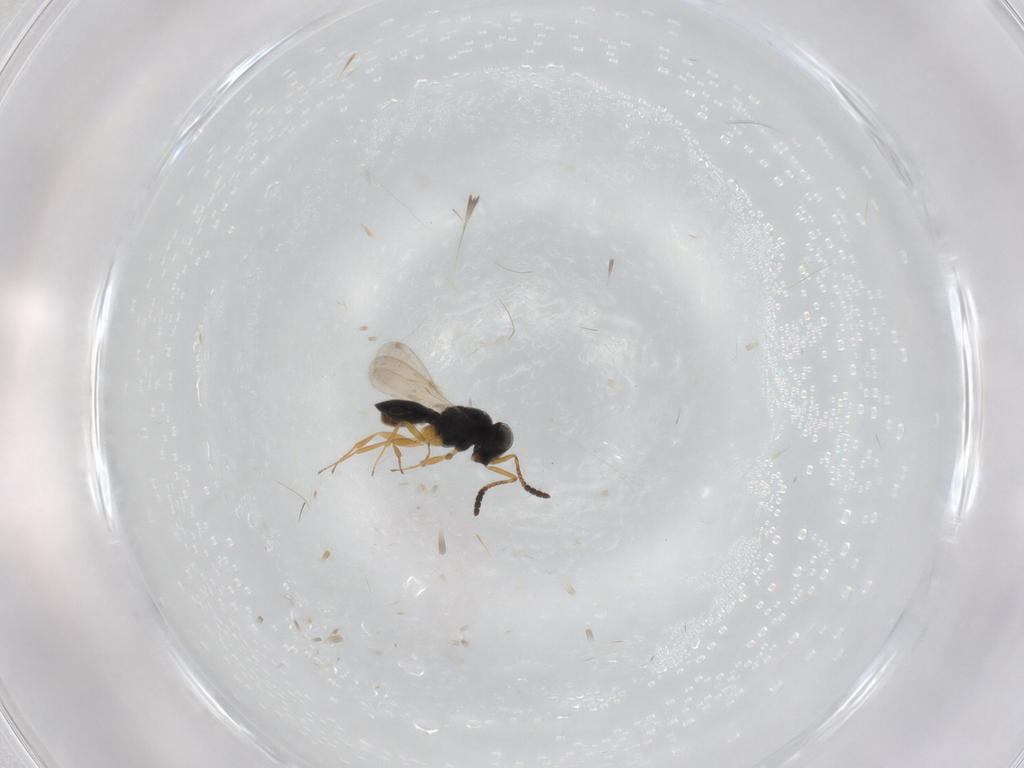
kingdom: Animalia
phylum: Arthropoda
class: Insecta
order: Hymenoptera
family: Scelionidae
